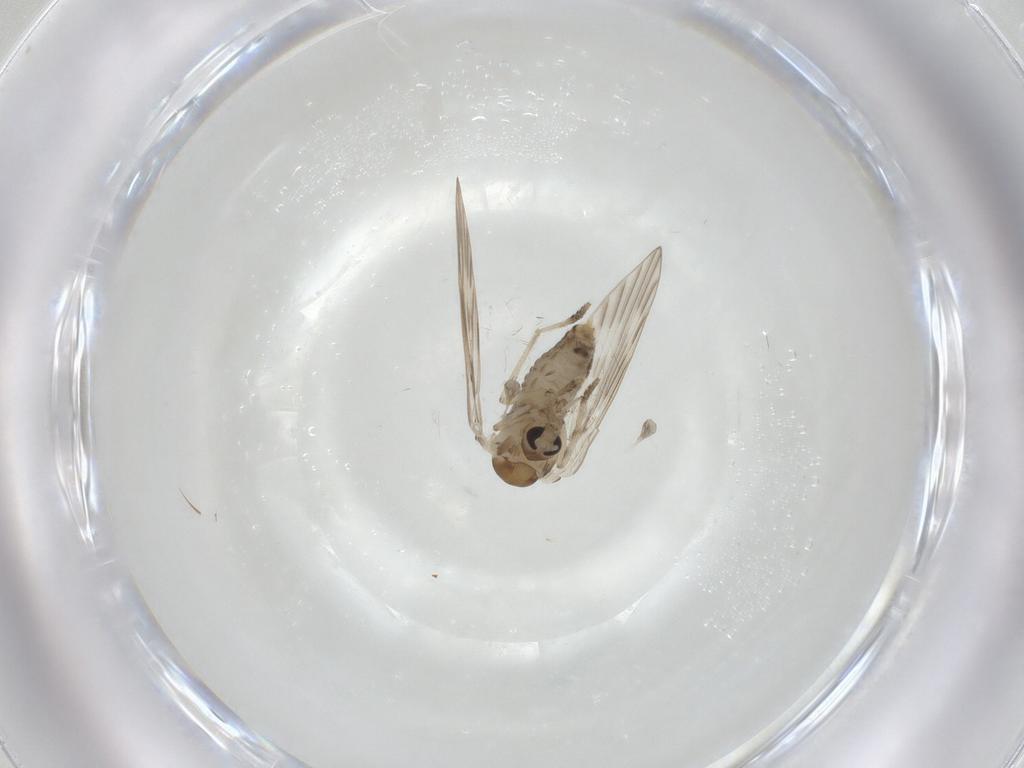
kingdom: Animalia
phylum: Arthropoda
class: Insecta
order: Diptera
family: Psychodidae
